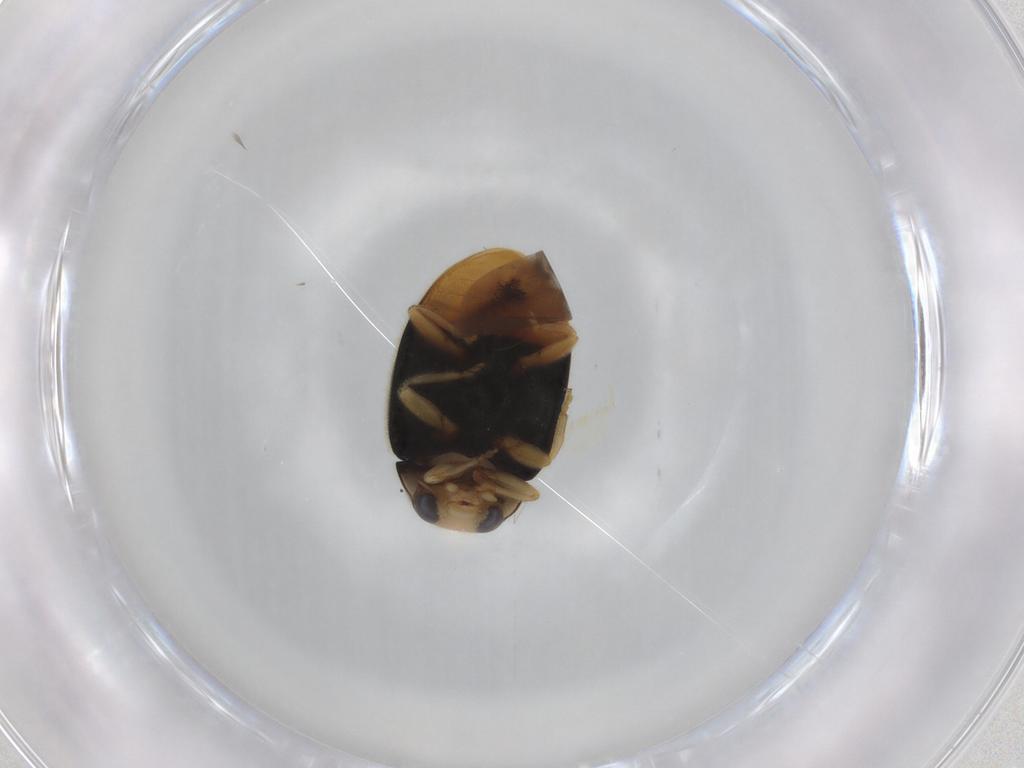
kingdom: Animalia
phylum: Arthropoda
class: Insecta
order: Coleoptera
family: Coccinellidae
